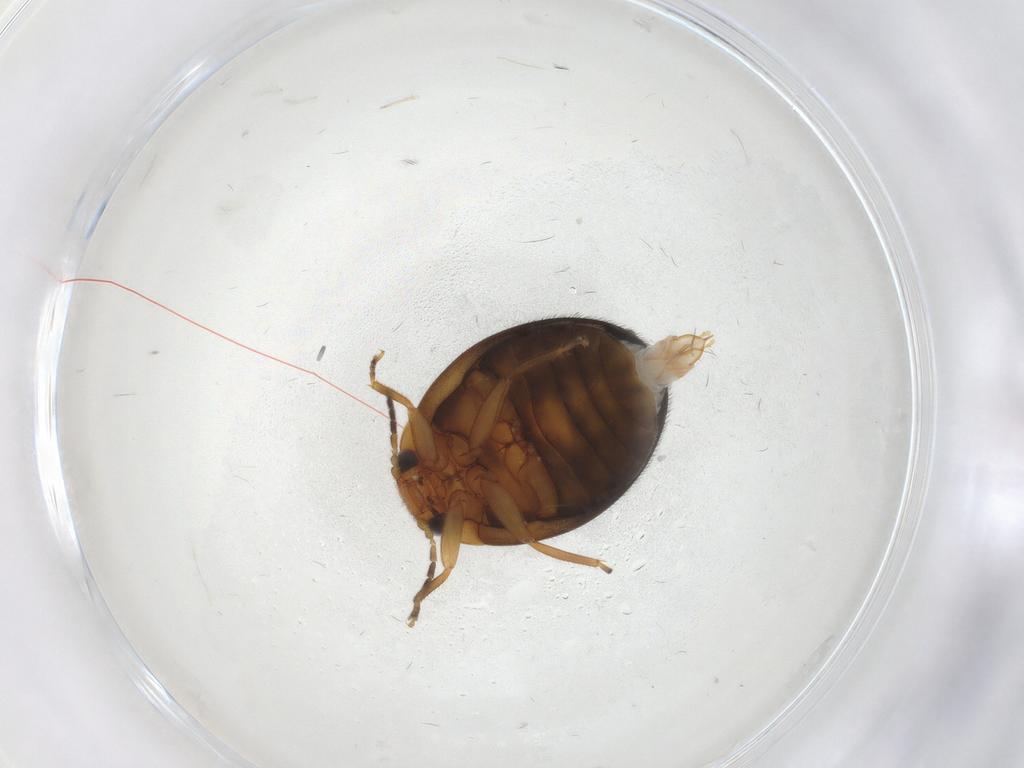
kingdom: Animalia
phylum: Arthropoda
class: Insecta
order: Coleoptera
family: Scirtidae
